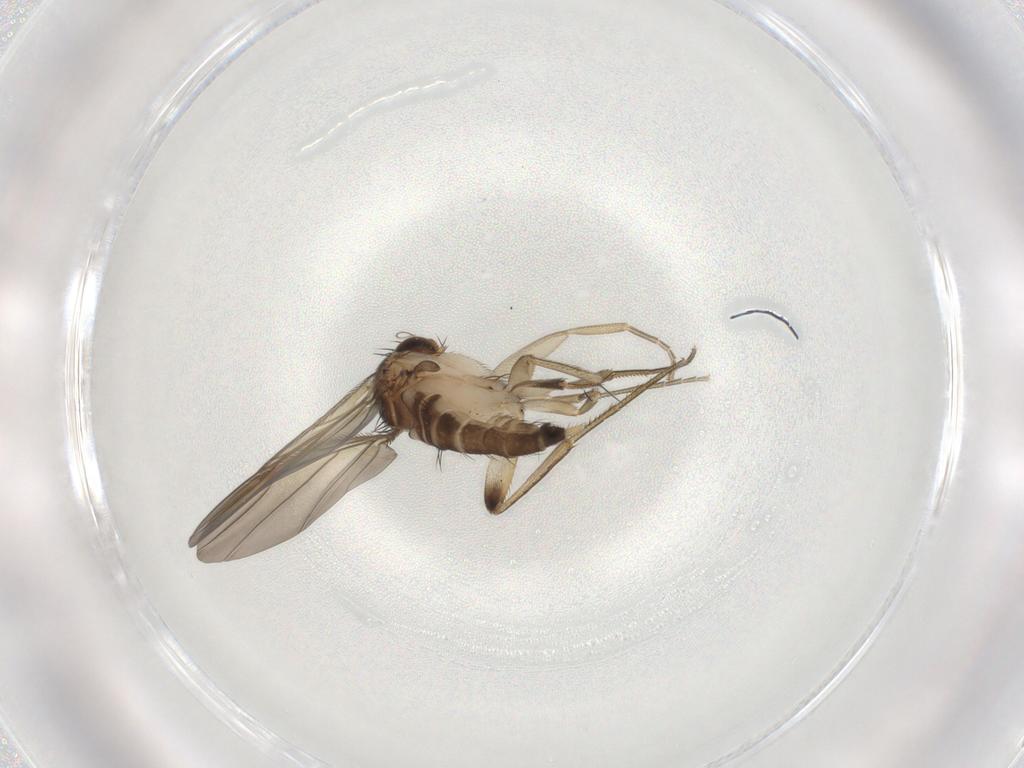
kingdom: Animalia
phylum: Arthropoda
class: Insecta
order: Diptera
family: Phoridae
